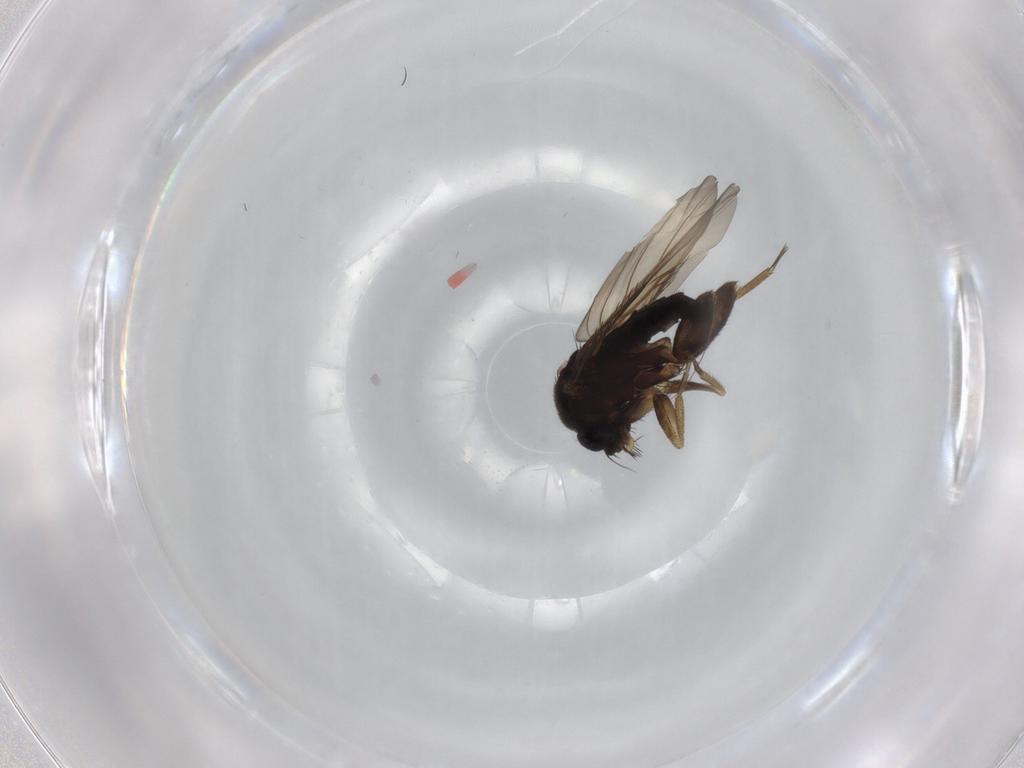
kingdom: Animalia
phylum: Arthropoda
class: Insecta
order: Diptera
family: Phoridae
